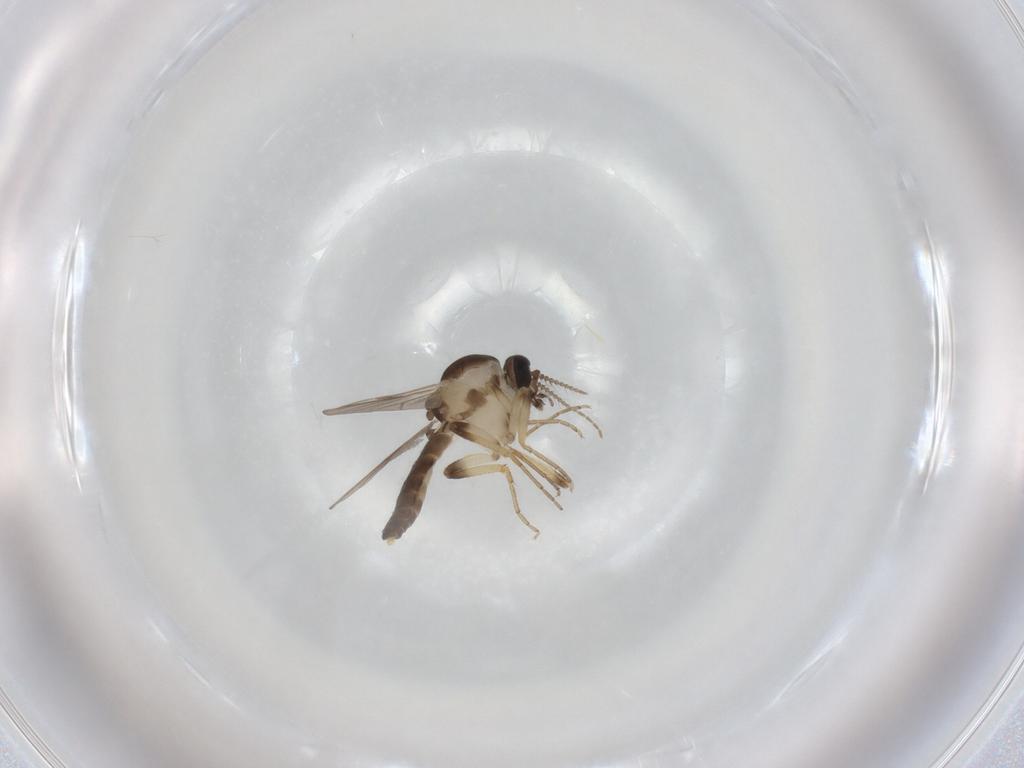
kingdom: Animalia
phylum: Arthropoda
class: Insecta
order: Diptera
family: Ceratopogonidae
